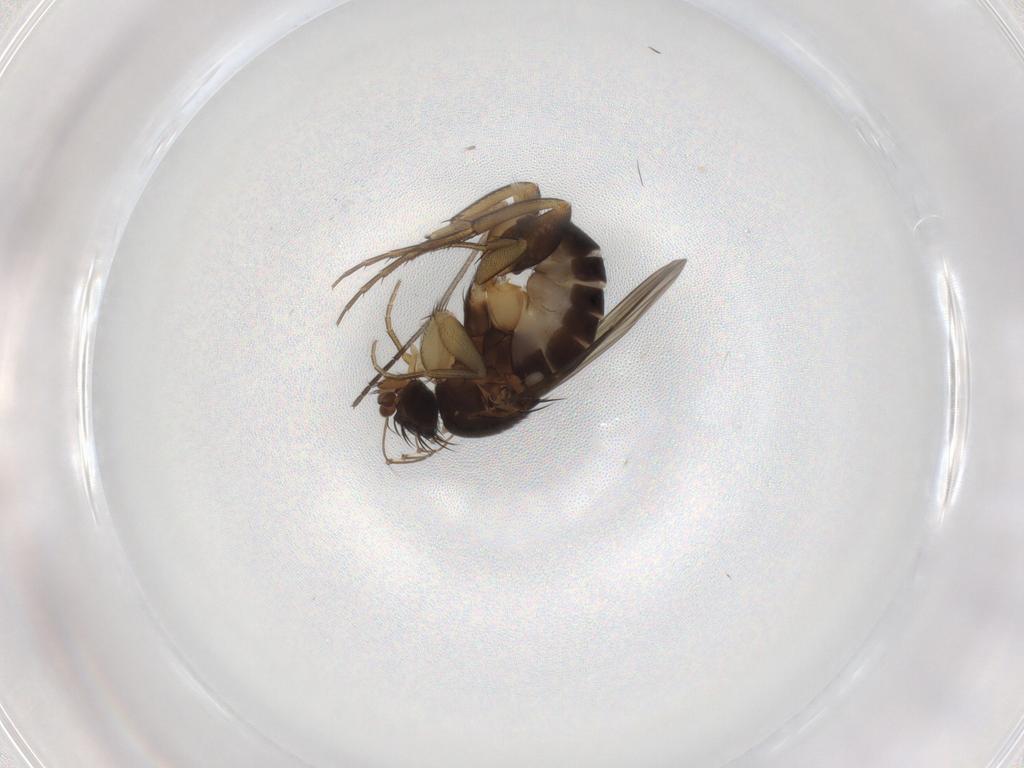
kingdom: Animalia
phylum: Arthropoda
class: Insecta
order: Diptera
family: Phoridae
